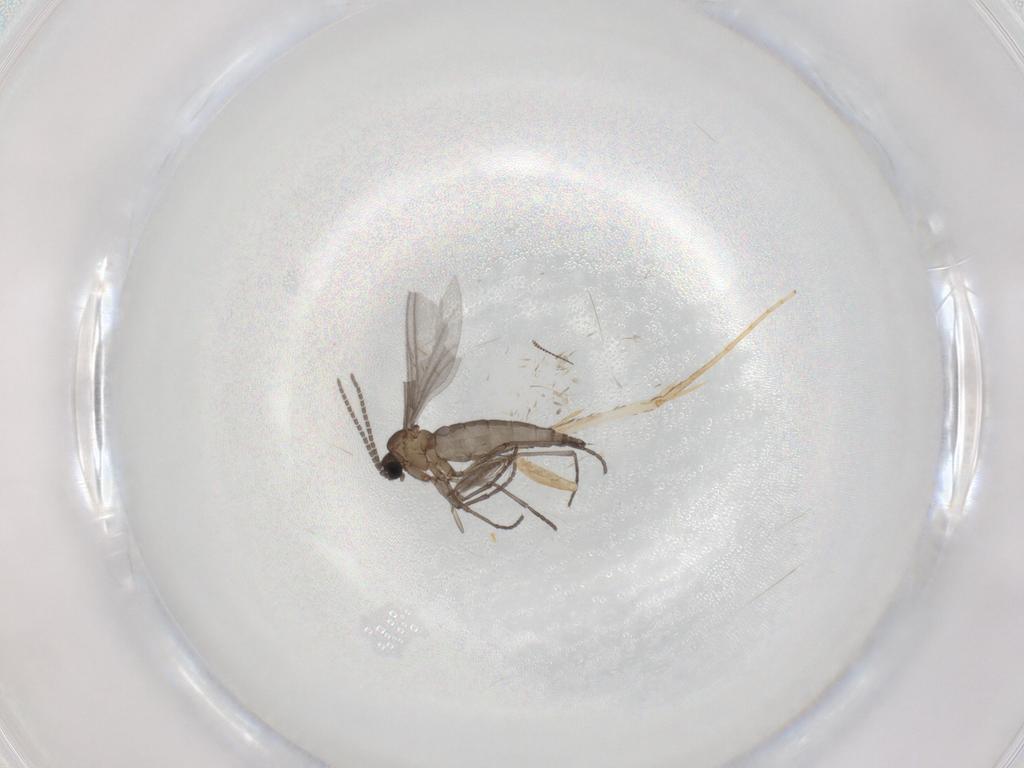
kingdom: Animalia
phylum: Arthropoda
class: Insecta
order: Diptera
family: Sciaridae
